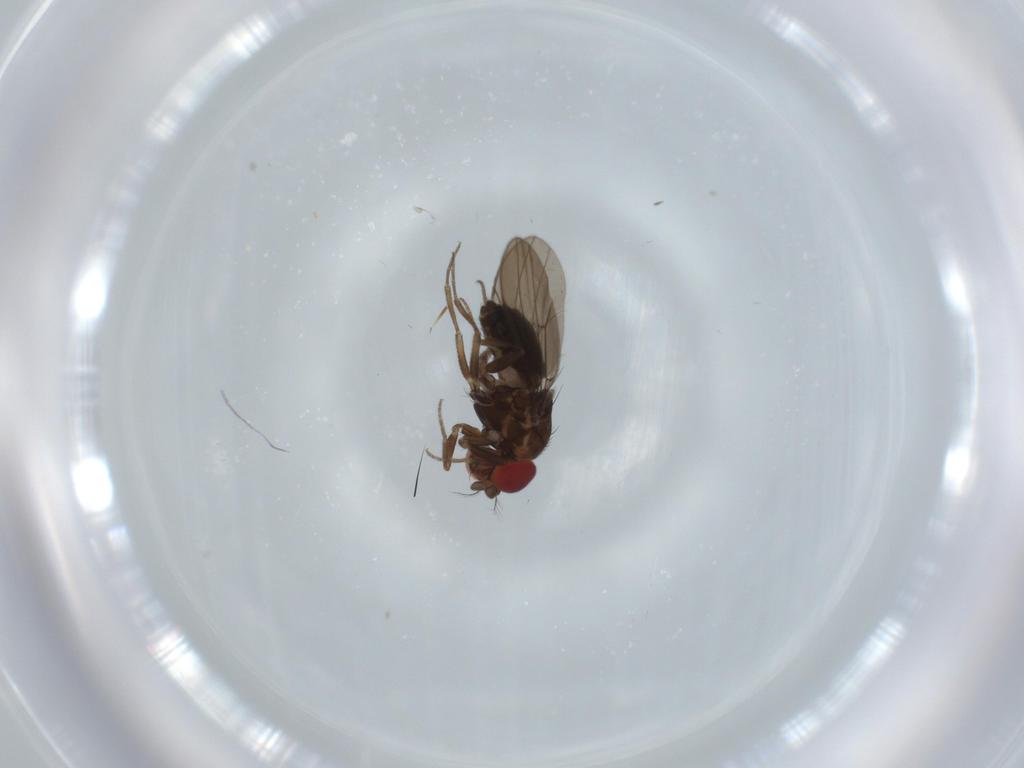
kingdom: Animalia
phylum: Arthropoda
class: Insecta
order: Diptera
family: Drosophilidae
